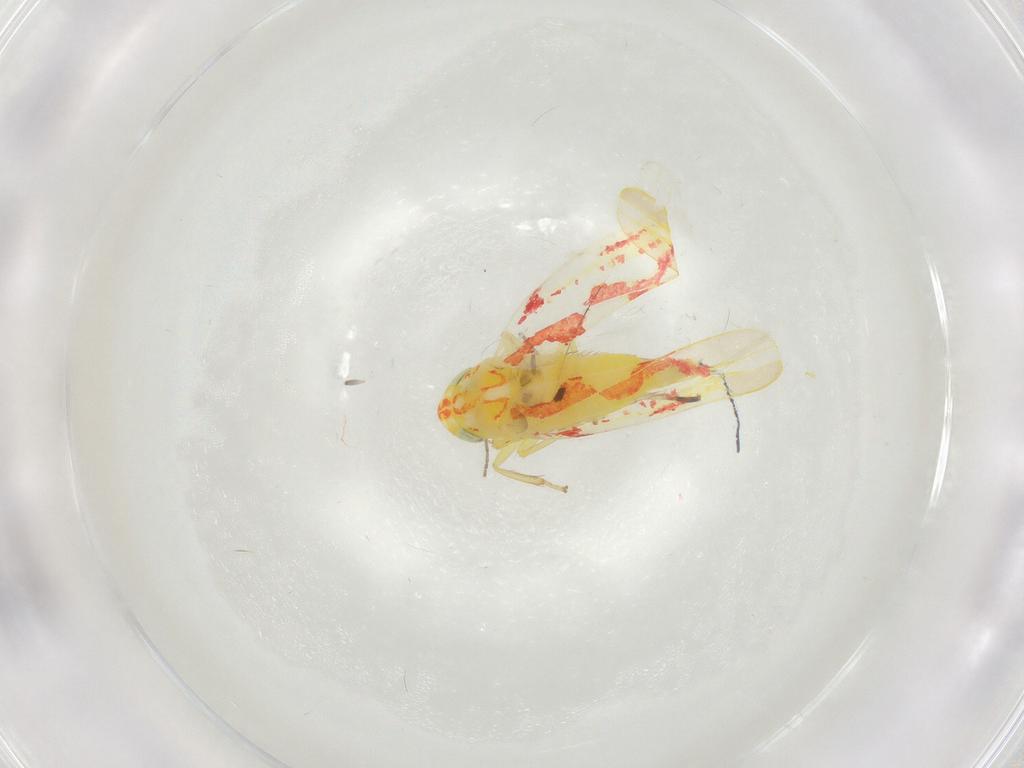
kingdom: Animalia
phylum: Arthropoda
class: Insecta
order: Hemiptera
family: Cicadellidae
